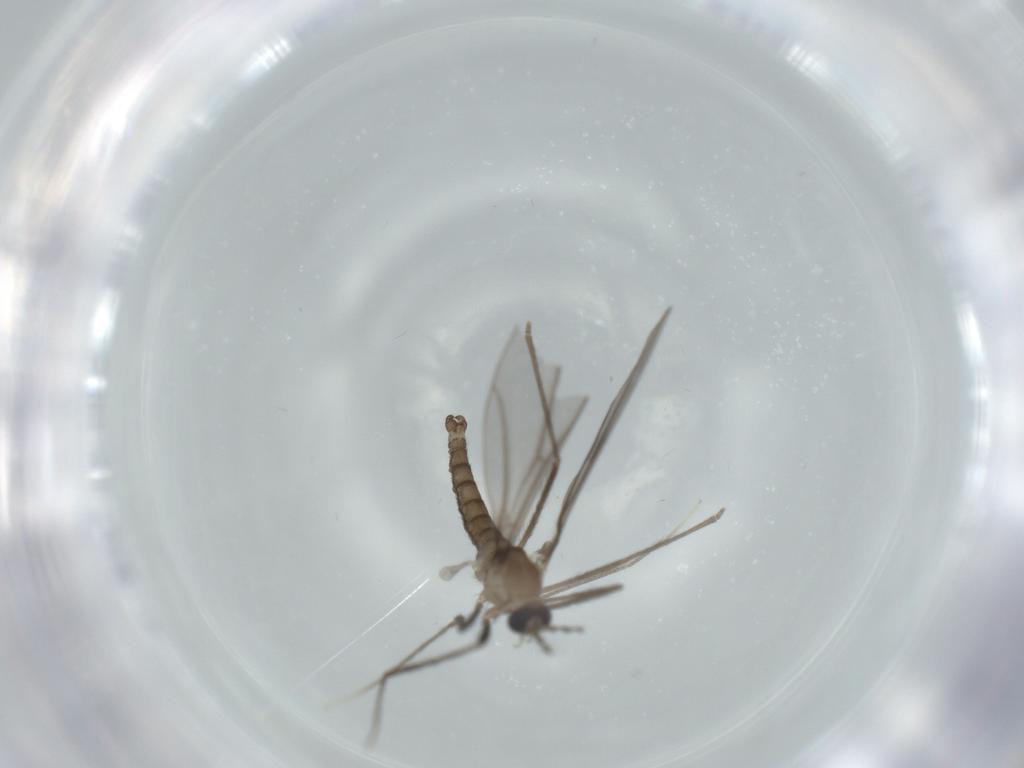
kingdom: Animalia
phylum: Arthropoda
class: Insecta
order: Diptera
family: Cecidomyiidae
